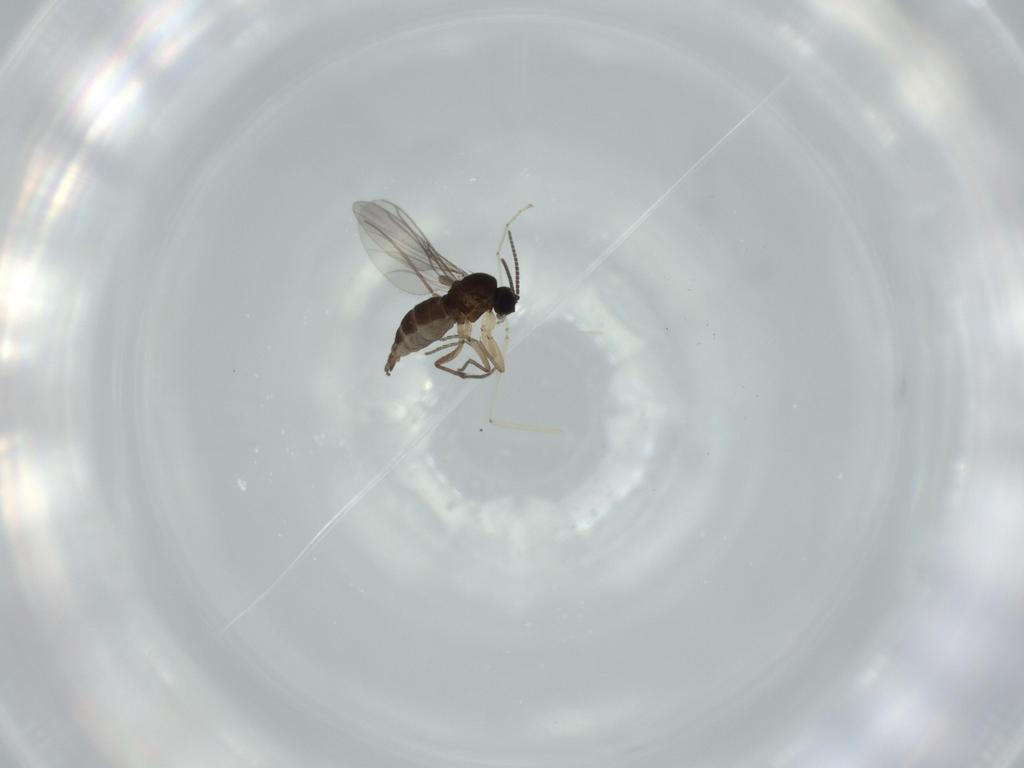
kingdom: Animalia
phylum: Arthropoda
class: Insecta
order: Diptera
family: Sciaridae
